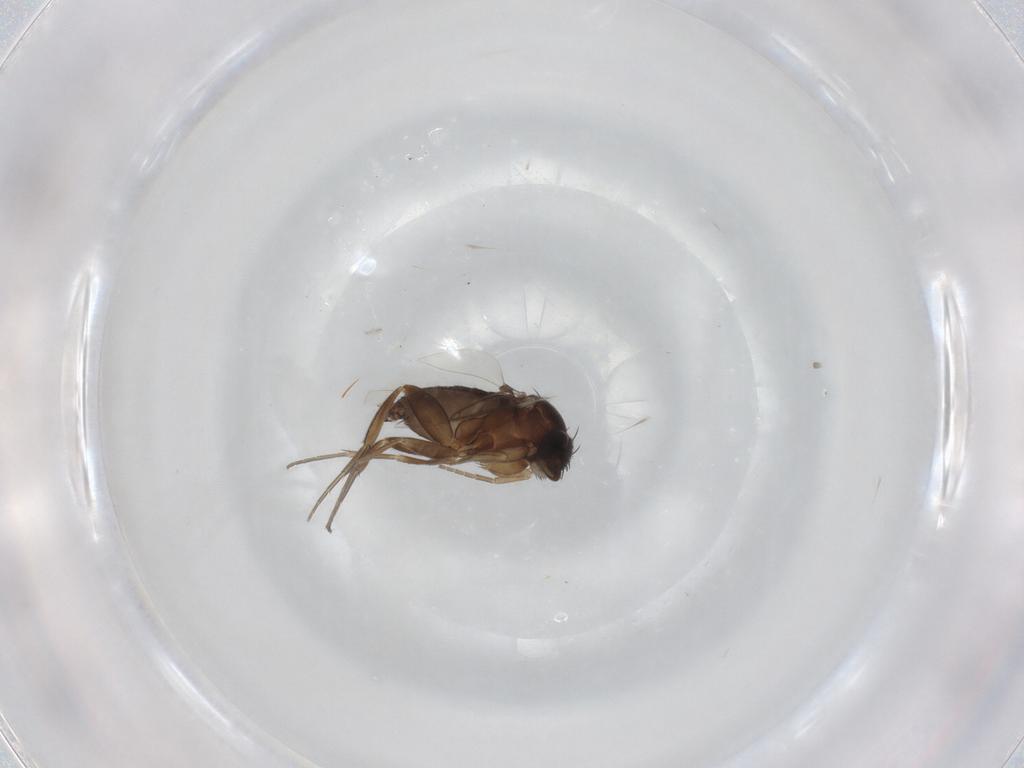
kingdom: Animalia
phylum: Arthropoda
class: Insecta
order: Diptera
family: Phoridae
